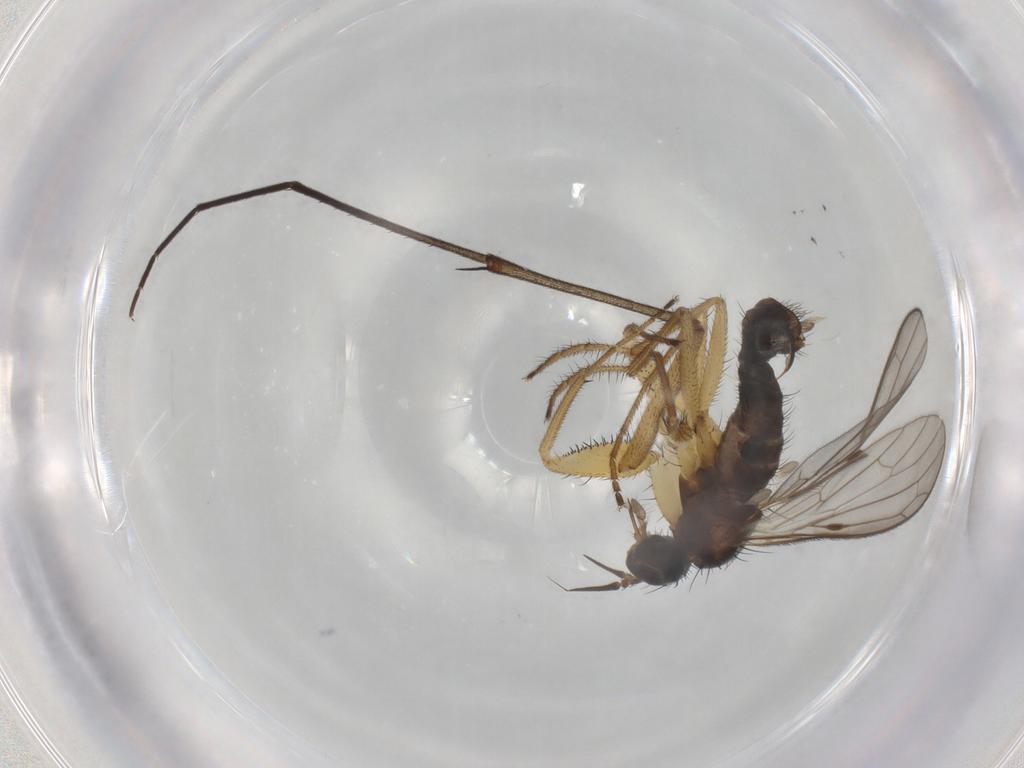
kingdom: Animalia
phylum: Arthropoda
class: Insecta
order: Diptera
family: Empididae
